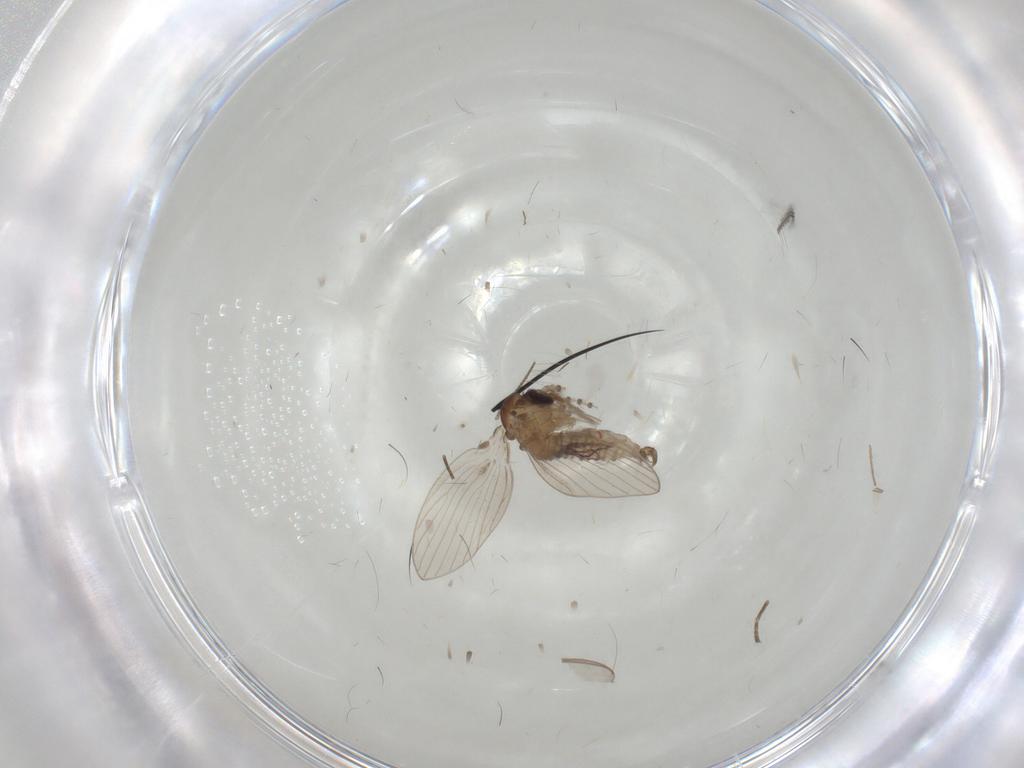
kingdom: Animalia
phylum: Arthropoda
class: Insecta
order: Diptera
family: Psychodidae
